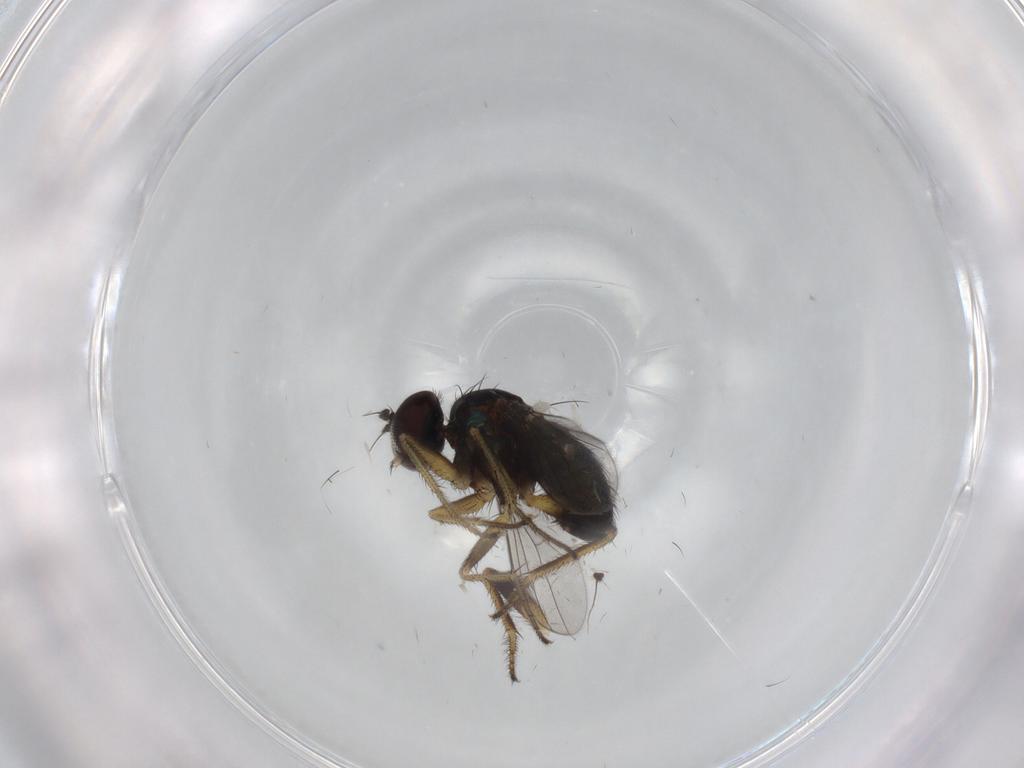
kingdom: Animalia
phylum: Arthropoda
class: Insecta
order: Diptera
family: Dolichopodidae
